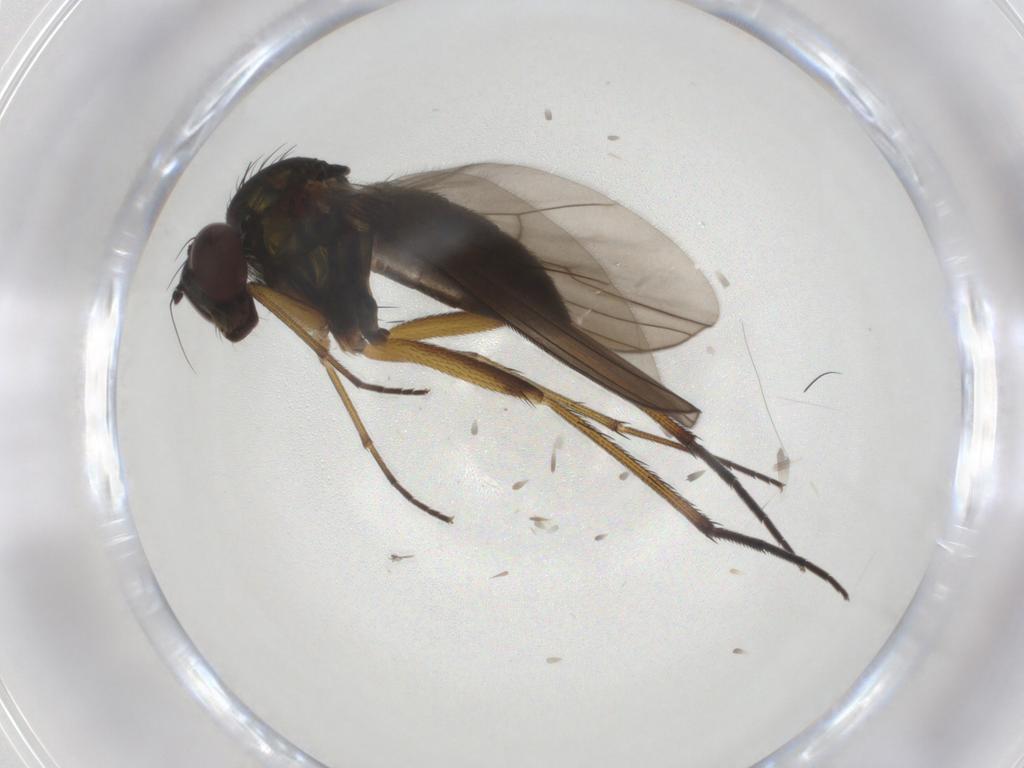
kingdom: Animalia
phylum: Arthropoda
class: Insecta
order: Diptera
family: Dolichopodidae
